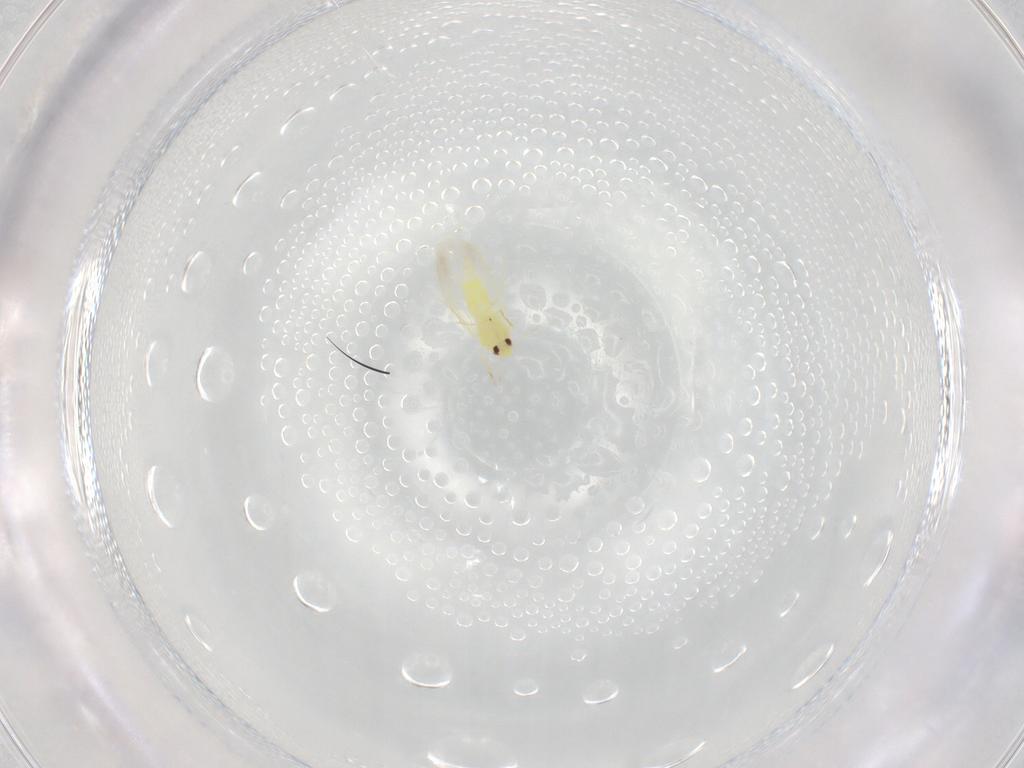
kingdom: Animalia
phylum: Arthropoda
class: Insecta
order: Hemiptera
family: Aleyrodidae
